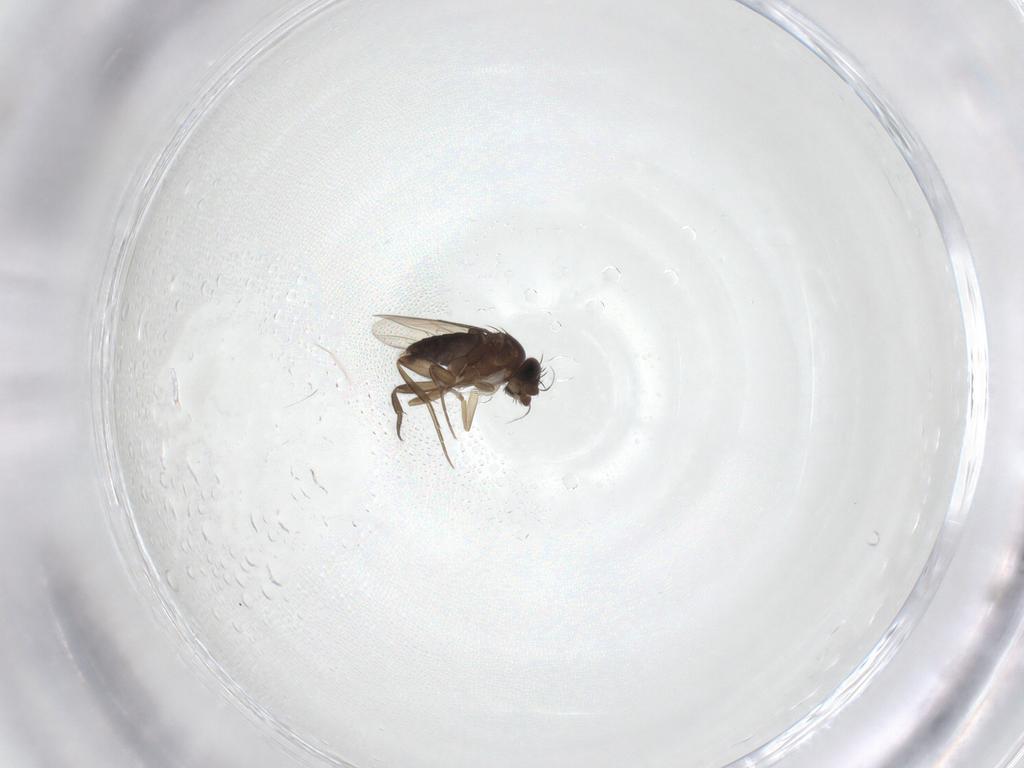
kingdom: Animalia
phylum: Arthropoda
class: Insecta
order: Diptera
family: Phoridae
